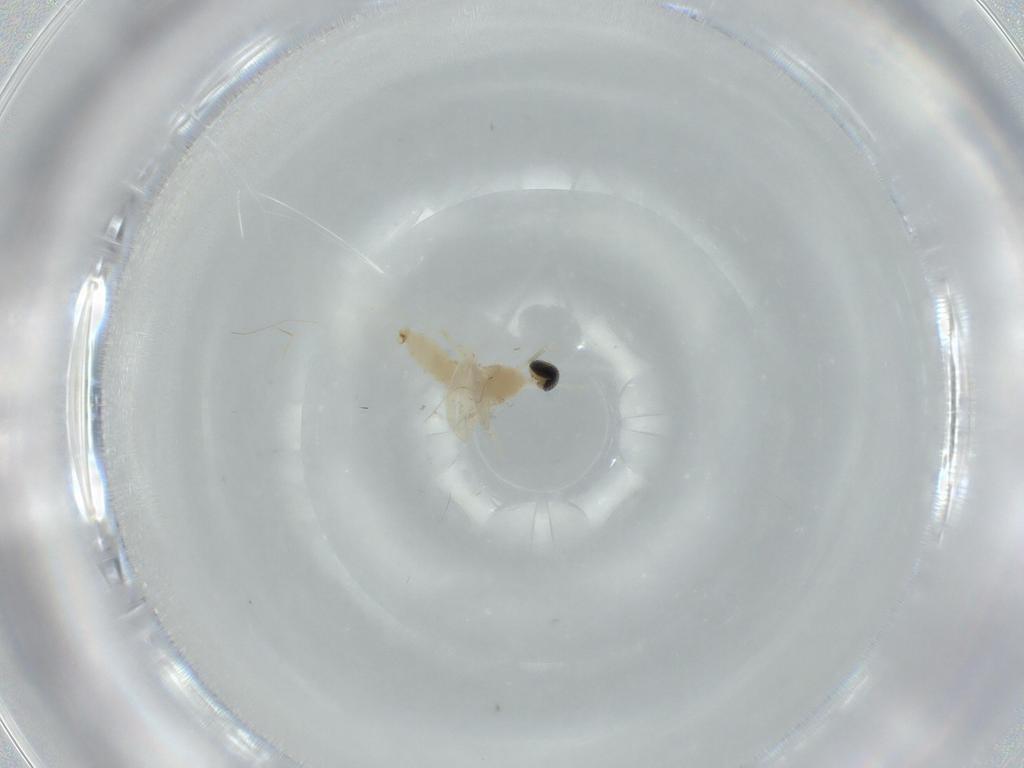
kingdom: Animalia
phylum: Arthropoda
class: Insecta
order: Diptera
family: Cecidomyiidae
